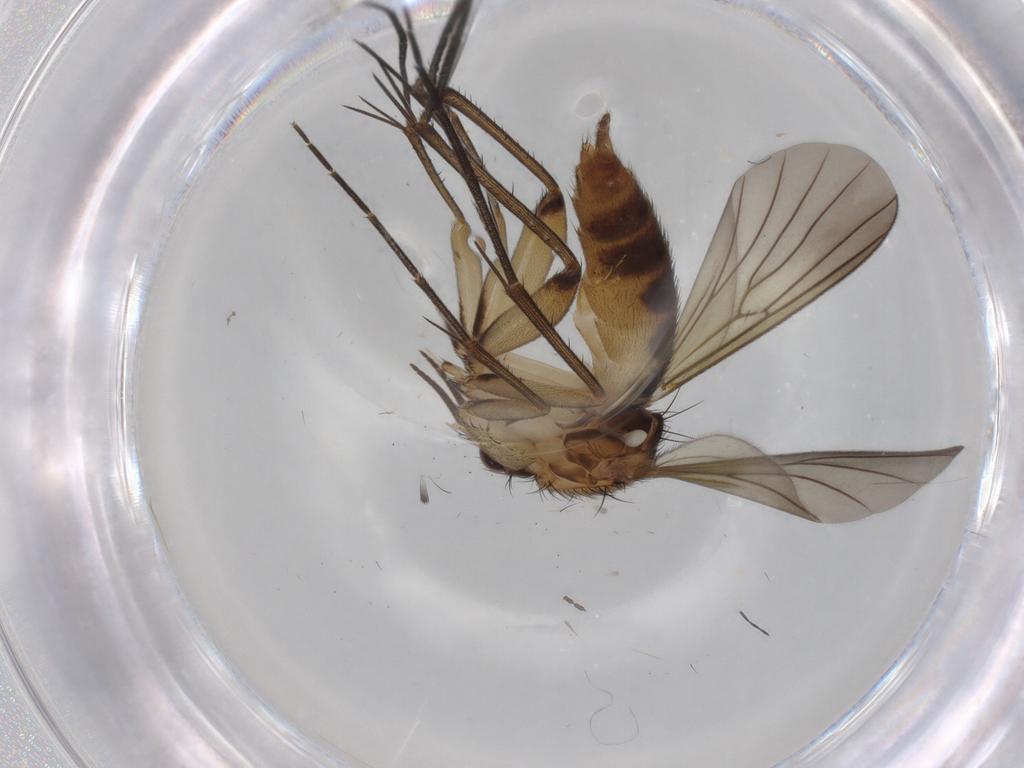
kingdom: Animalia
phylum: Arthropoda
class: Insecta
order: Diptera
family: Mycetophilidae
